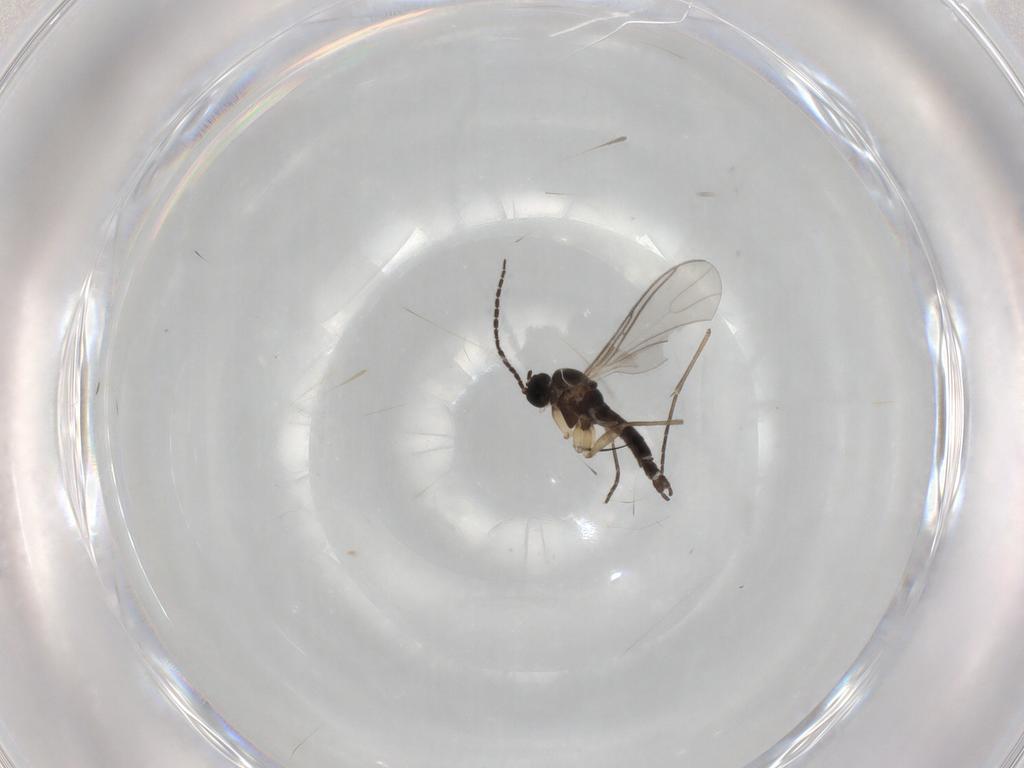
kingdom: Animalia
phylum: Arthropoda
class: Insecta
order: Diptera
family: Sciaridae
